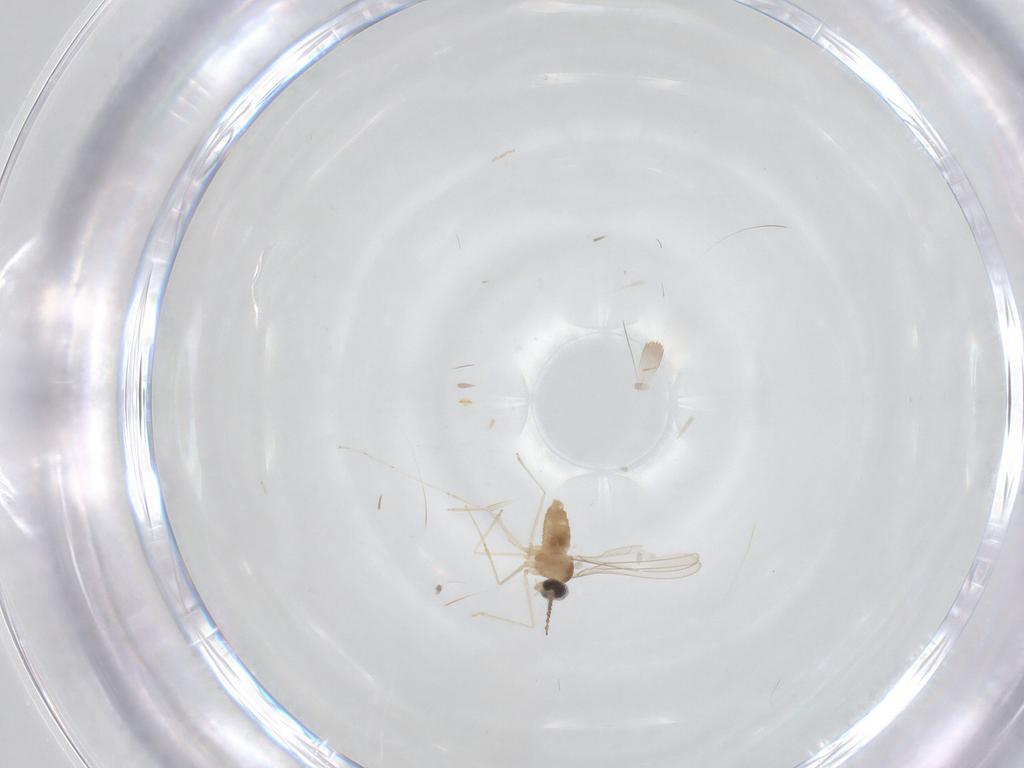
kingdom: Animalia
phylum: Arthropoda
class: Insecta
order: Diptera
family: Cecidomyiidae
